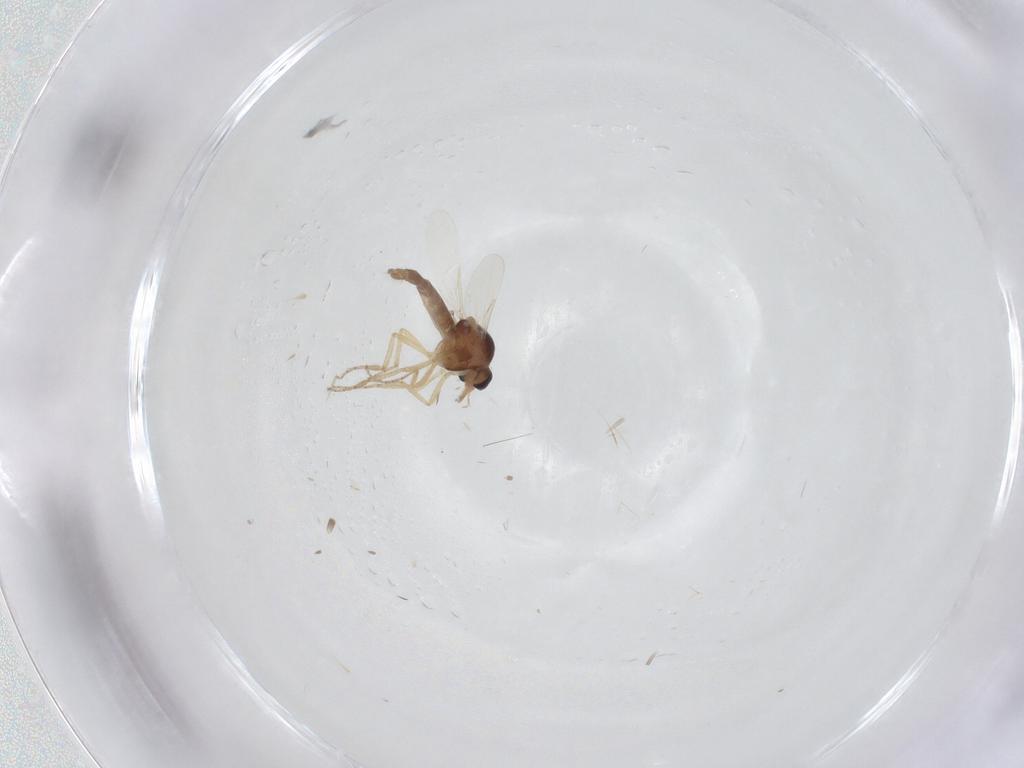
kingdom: Animalia
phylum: Arthropoda
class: Insecta
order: Diptera
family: Ceratopogonidae
